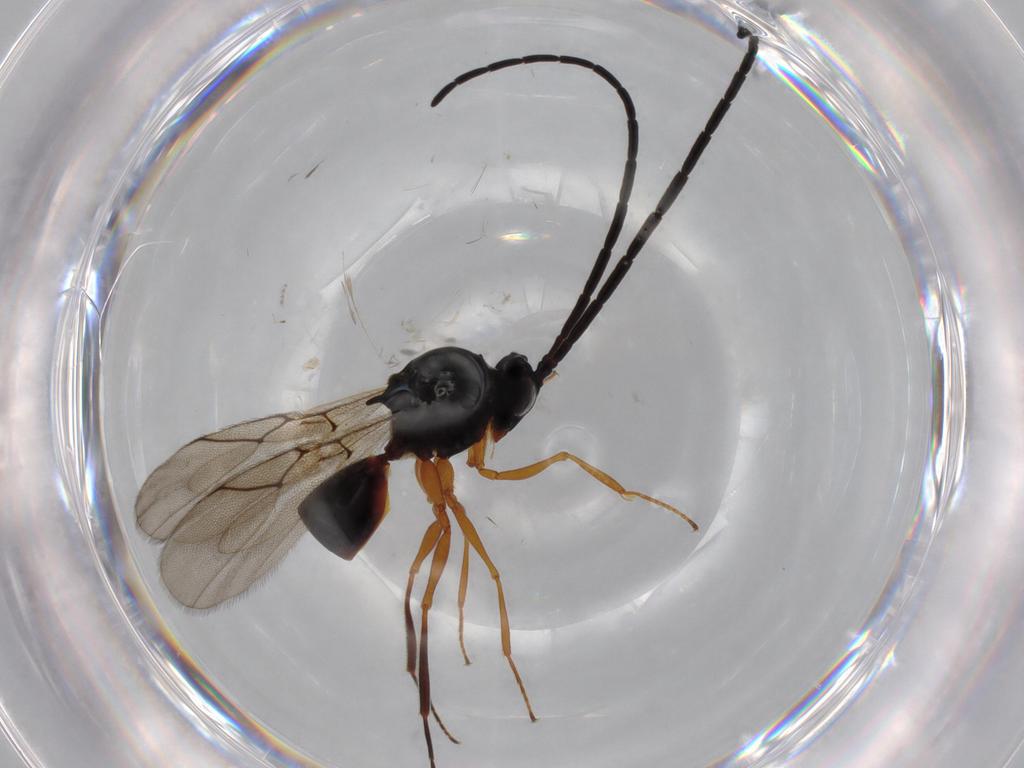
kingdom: Animalia
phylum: Arthropoda
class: Insecta
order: Hymenoptera
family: Figitidae
